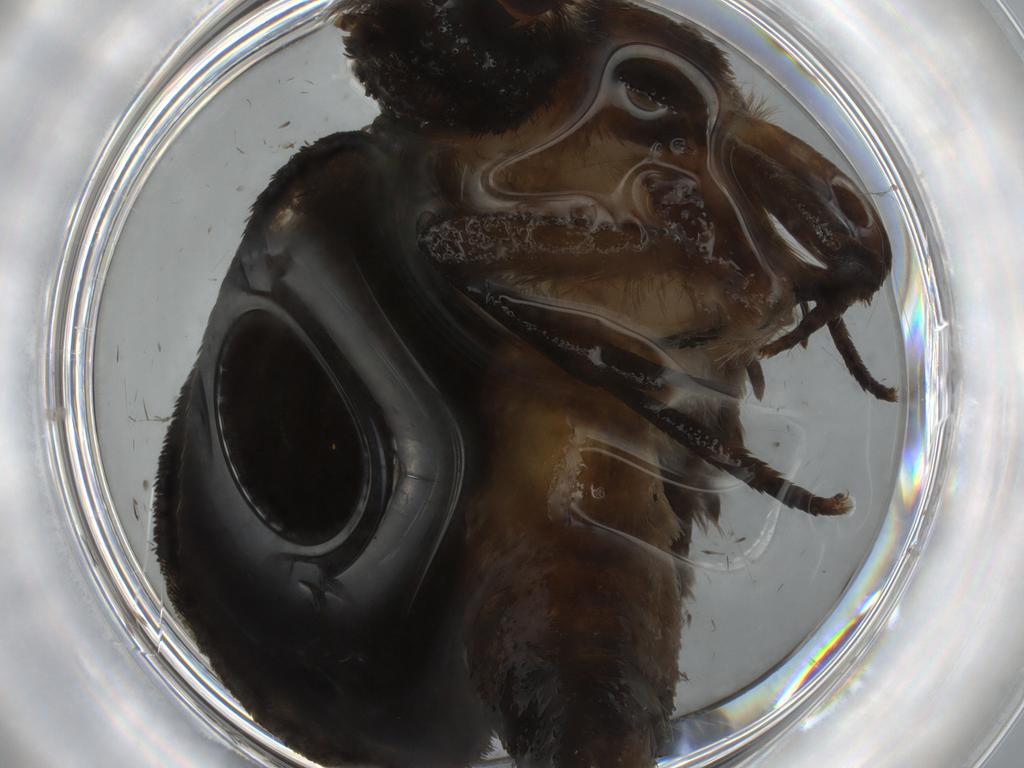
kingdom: Animalia
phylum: Arthropoda
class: Insecta
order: Lepidoptera
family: Tineidae
